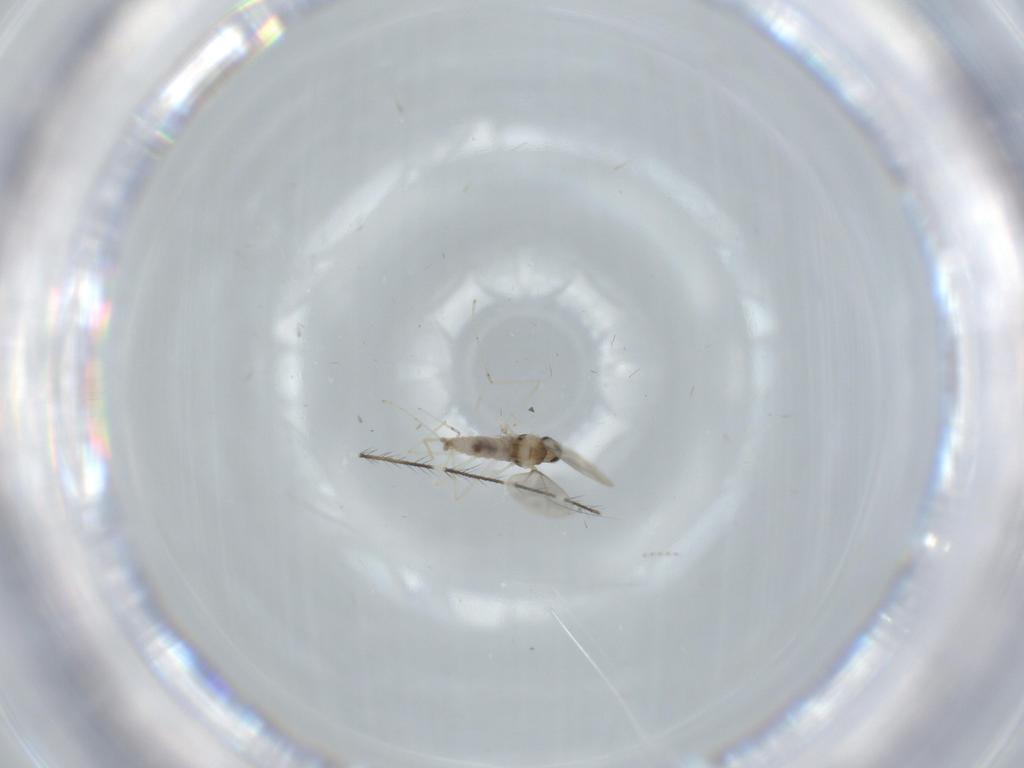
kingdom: Animalia
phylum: Arthropoda
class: Insecta
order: Diptera
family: Cecidomyiidae
